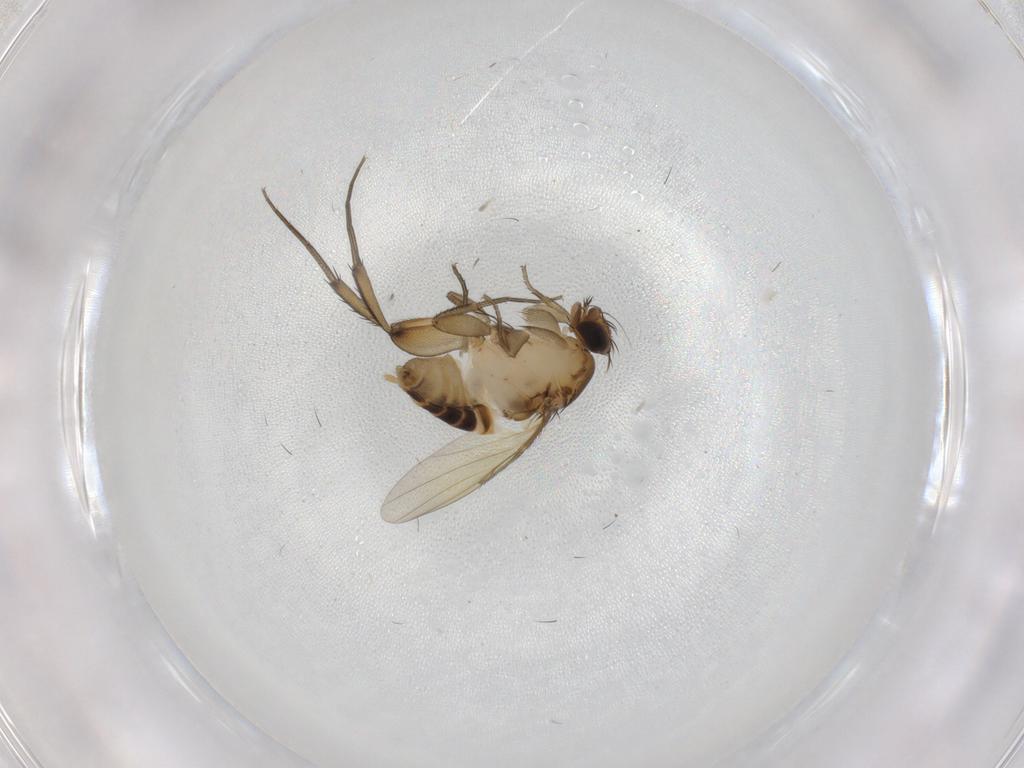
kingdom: Animalia
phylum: Arthropoda
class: Insecta
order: Diptera
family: Phoridae
